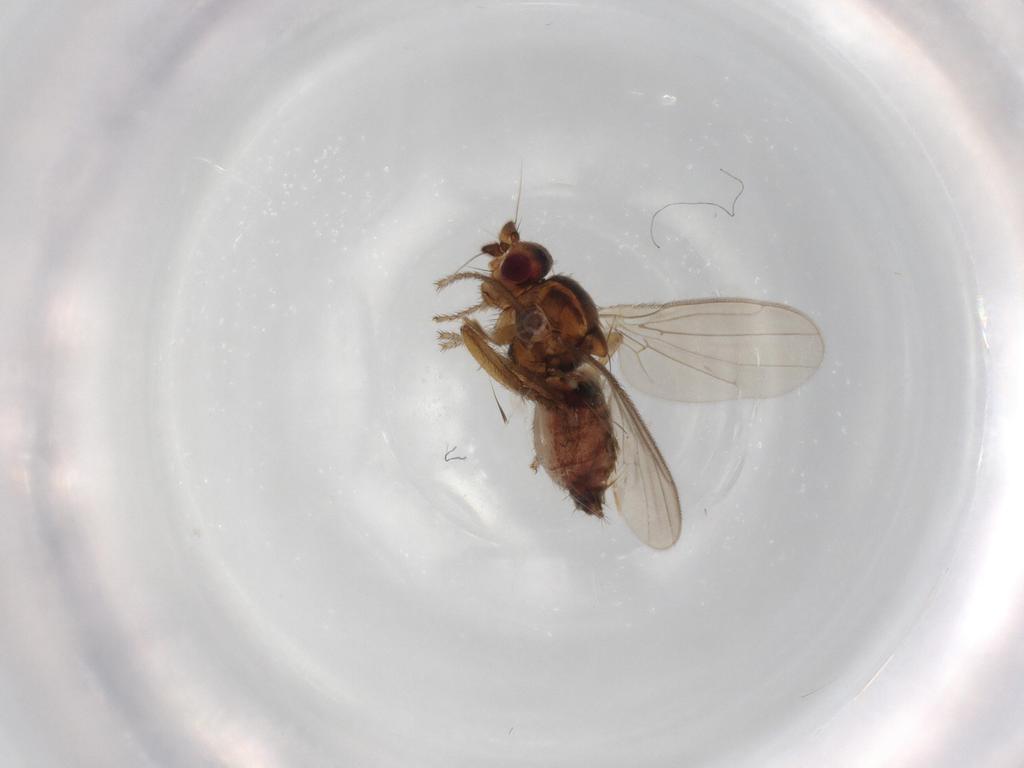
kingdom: Animalia
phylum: Arthropoda
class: Insecta
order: Diptera
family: Sphaeroceridae
